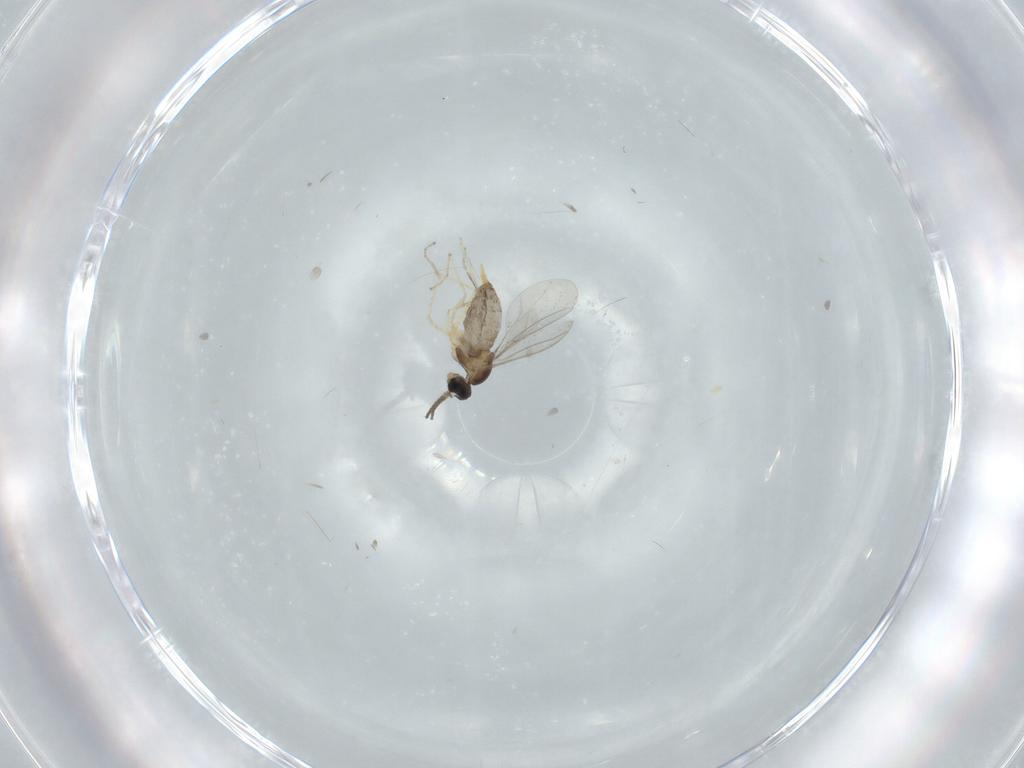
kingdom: Animalia
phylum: Arthropoda
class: Insecta
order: Diptera
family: Cecidomyiidae
